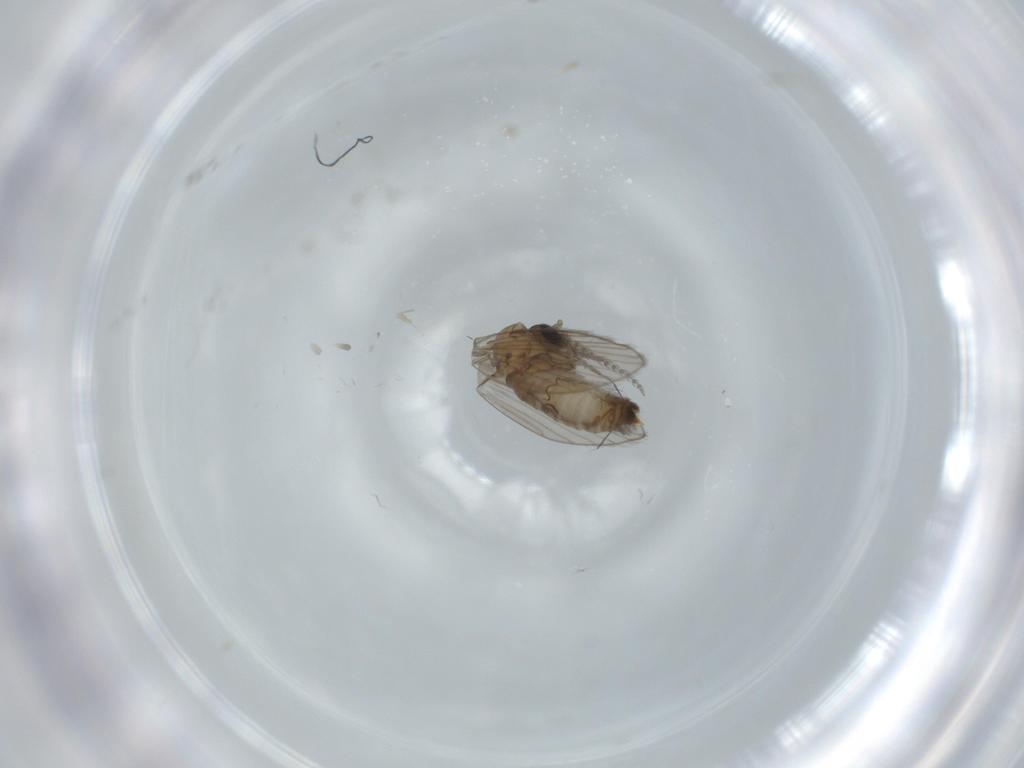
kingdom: Animalia
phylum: Arthropoda
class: Insecta
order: Diptera
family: Psychodidae
